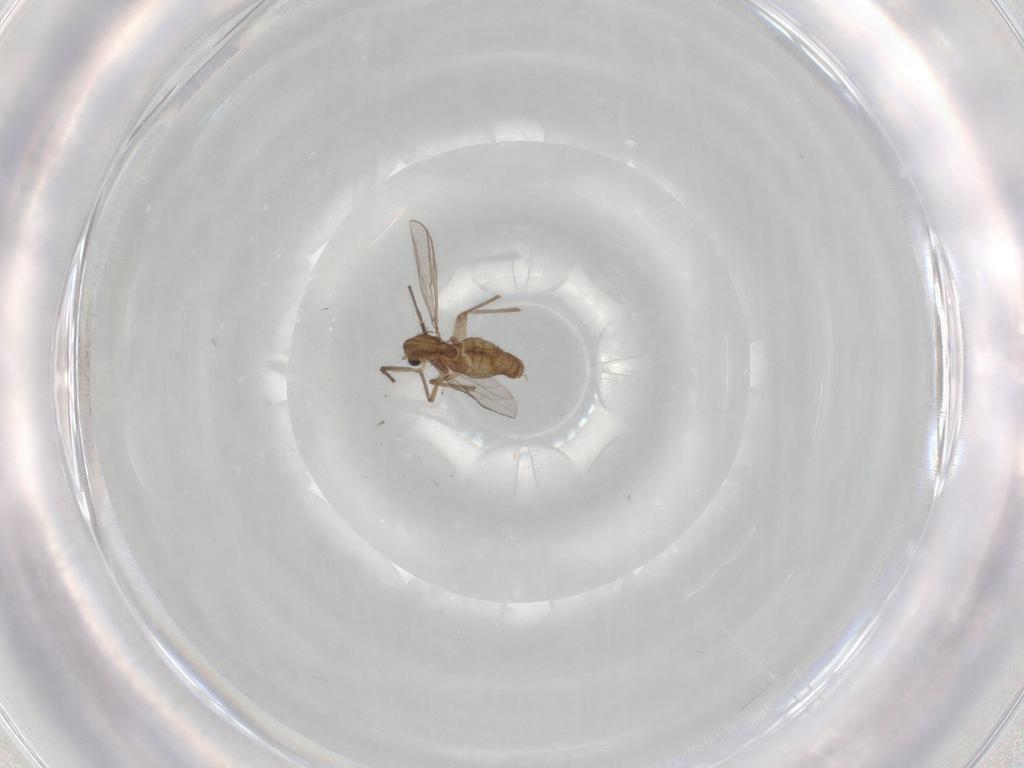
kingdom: Animalia
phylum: Arthropoda
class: Insecta
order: Diptera
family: Chironomidae
